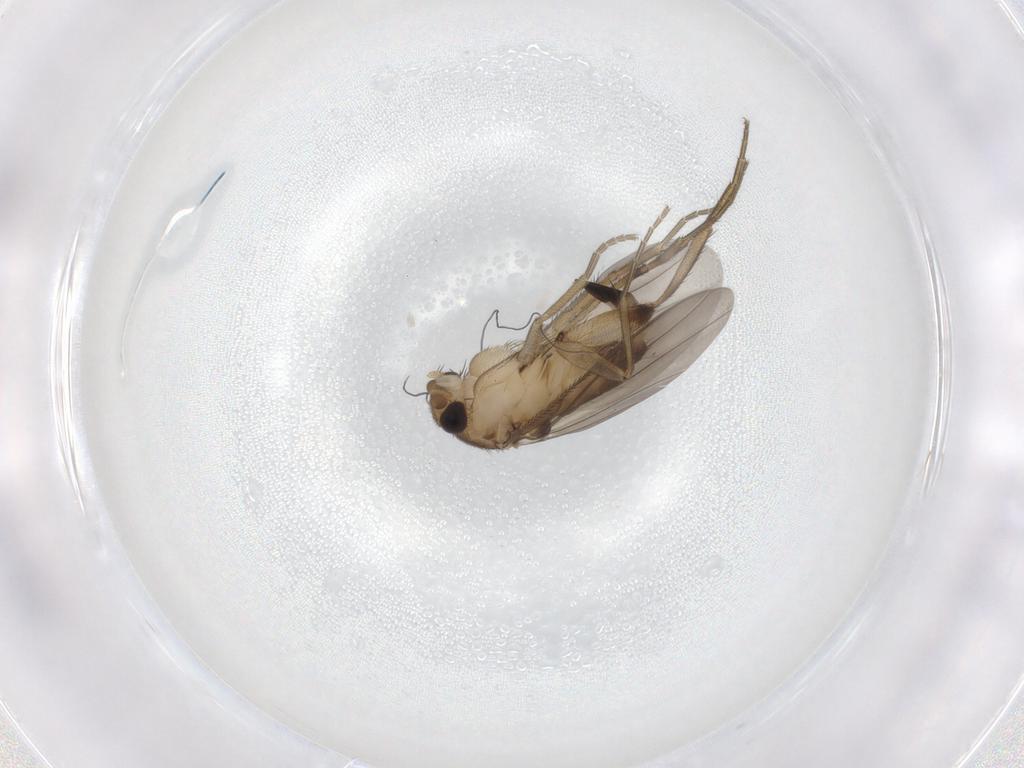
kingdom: Animalia
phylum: Arthropoda
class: Insecta
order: Diptera
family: Phoridae
